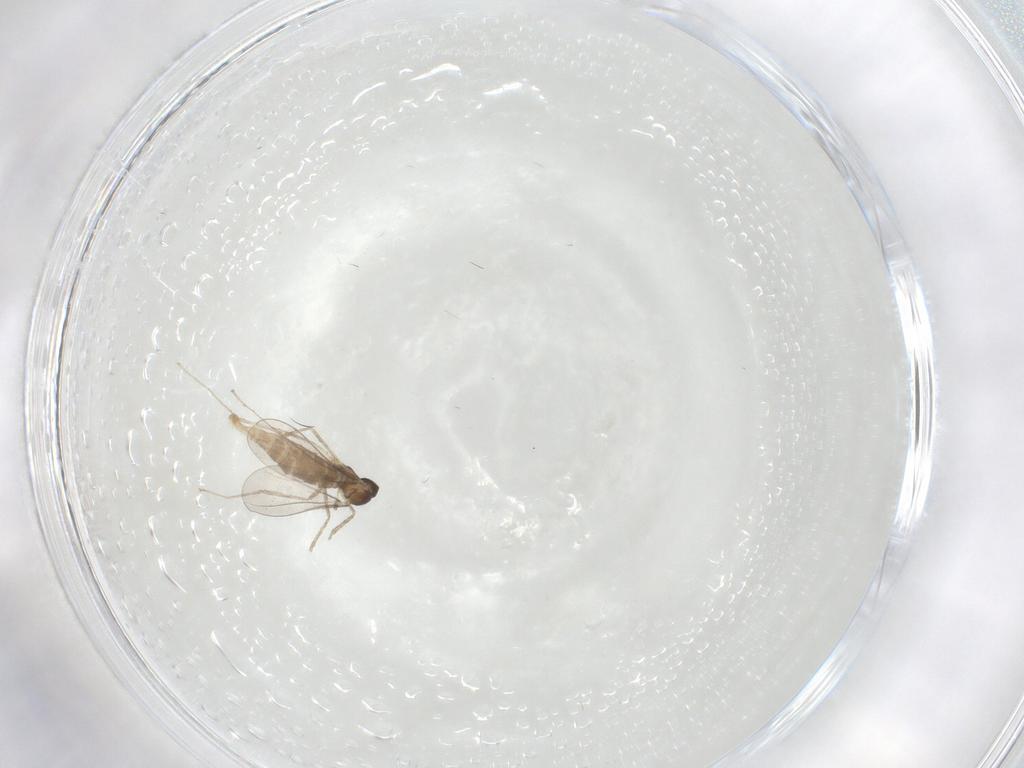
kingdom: Animalia
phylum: Arthropoda
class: Insecta
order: Diptera
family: Cecidomyiidae
